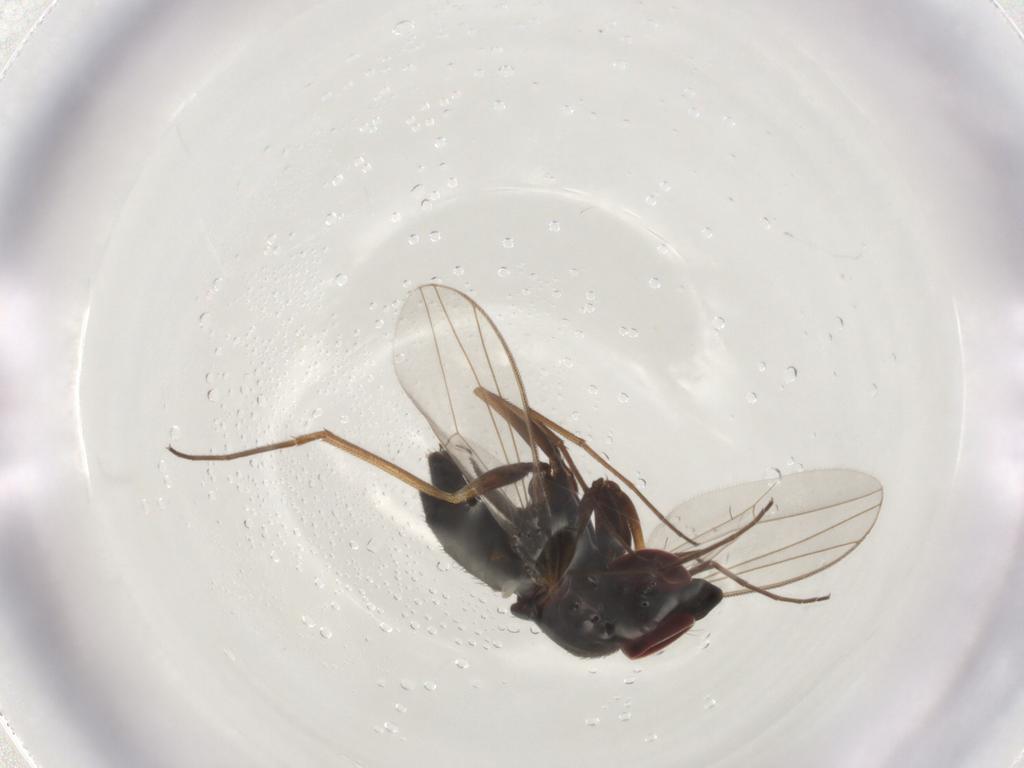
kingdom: Animalia
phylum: Arthropoda
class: Insecta
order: Diptera
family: Dolichopodidae
